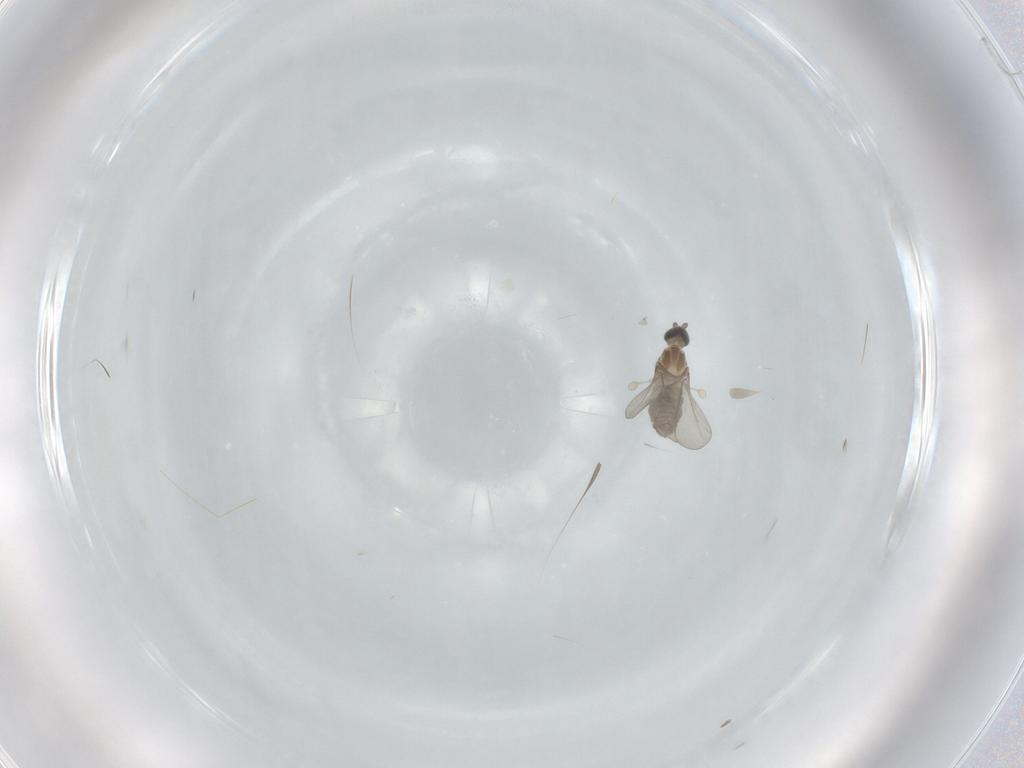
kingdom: Animalia
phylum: Arthropoda
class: Insecta
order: Diptera
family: Cecidomyiidae
